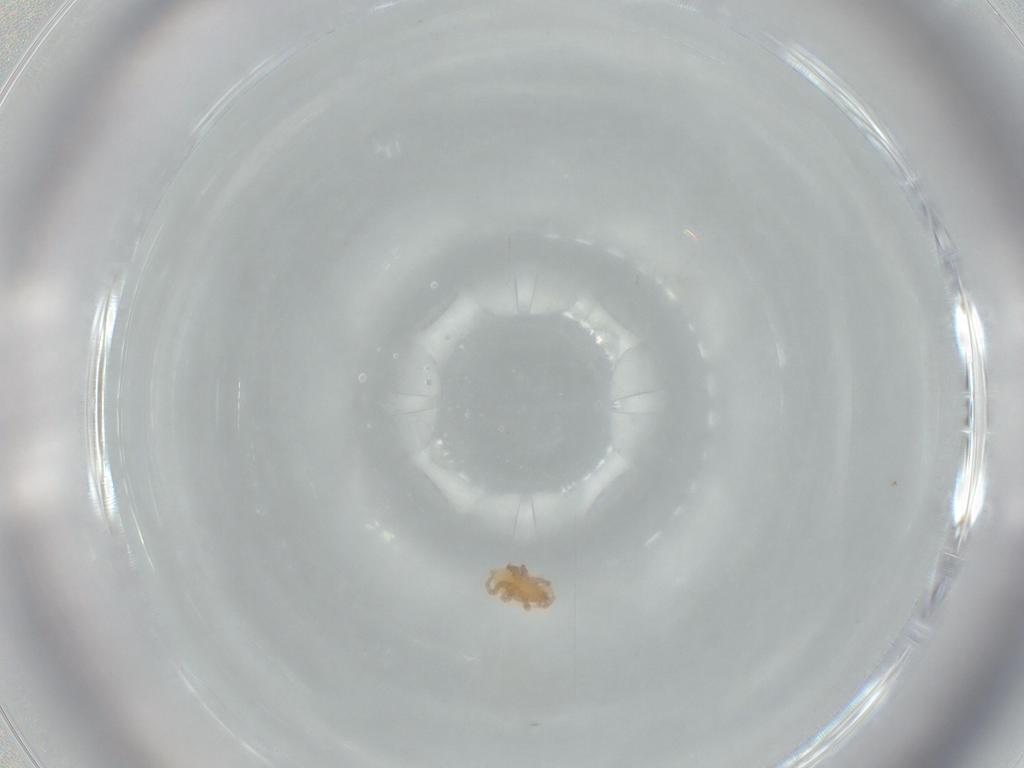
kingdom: Animalia
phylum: Arthropoda
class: Arachnida
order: Mesostigmata
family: Parasitidae
